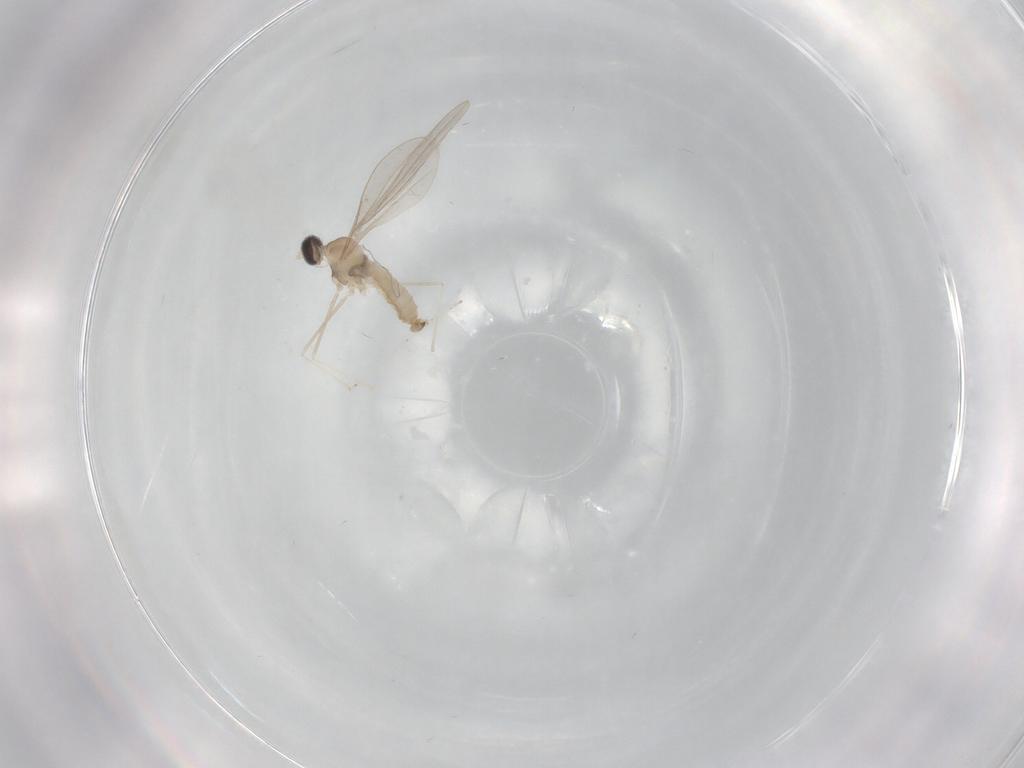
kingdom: Animalia
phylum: Arthropoda
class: Insecta
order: Diptera
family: Cecidomyiidae
